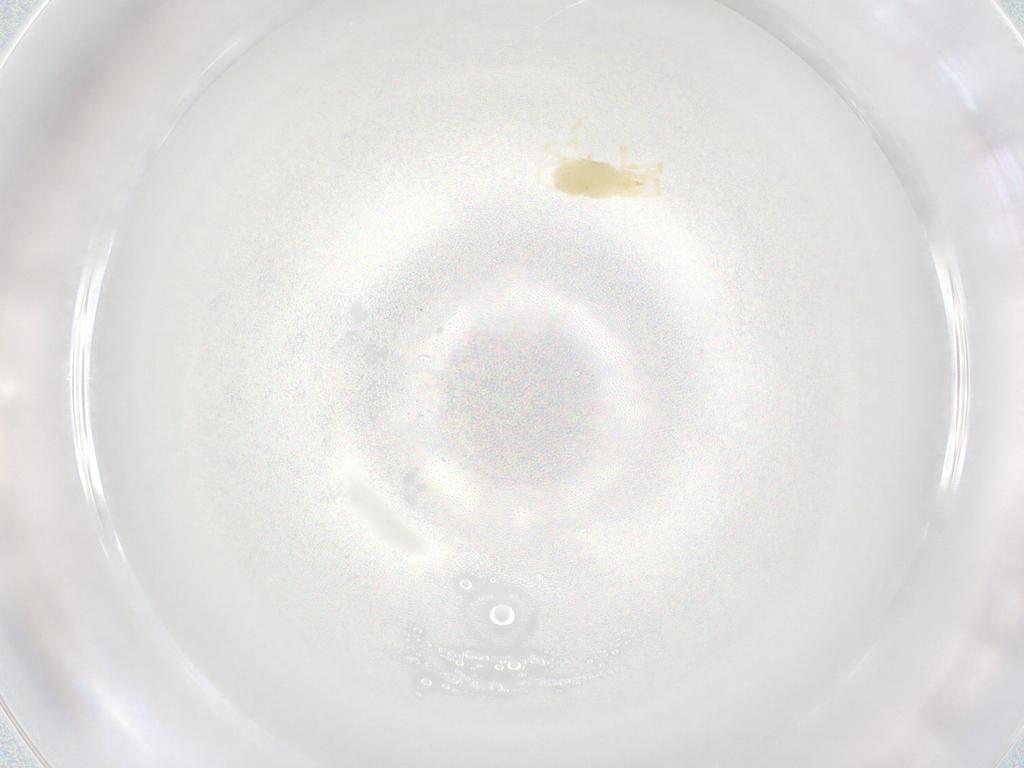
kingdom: Animalia
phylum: Arthropoda
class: Arachnida
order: Trombidiformes
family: Erythraeidae
